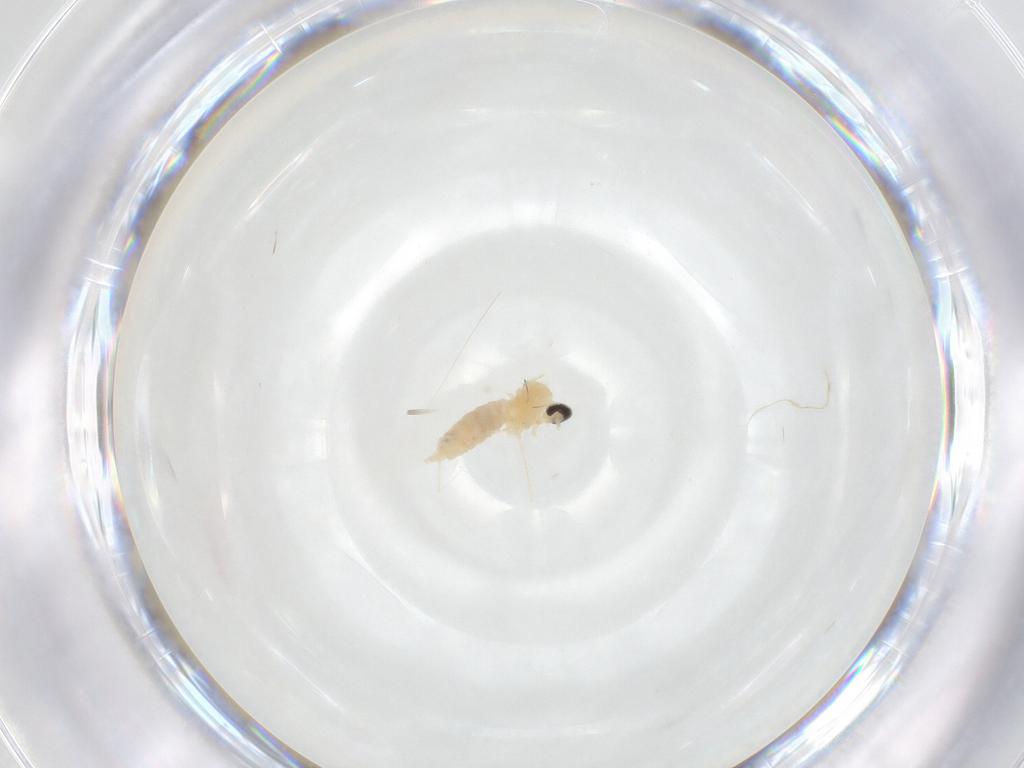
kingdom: Animalia
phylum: Arthropoda
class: Insecta
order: Diptera
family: Cecidomyiidae
